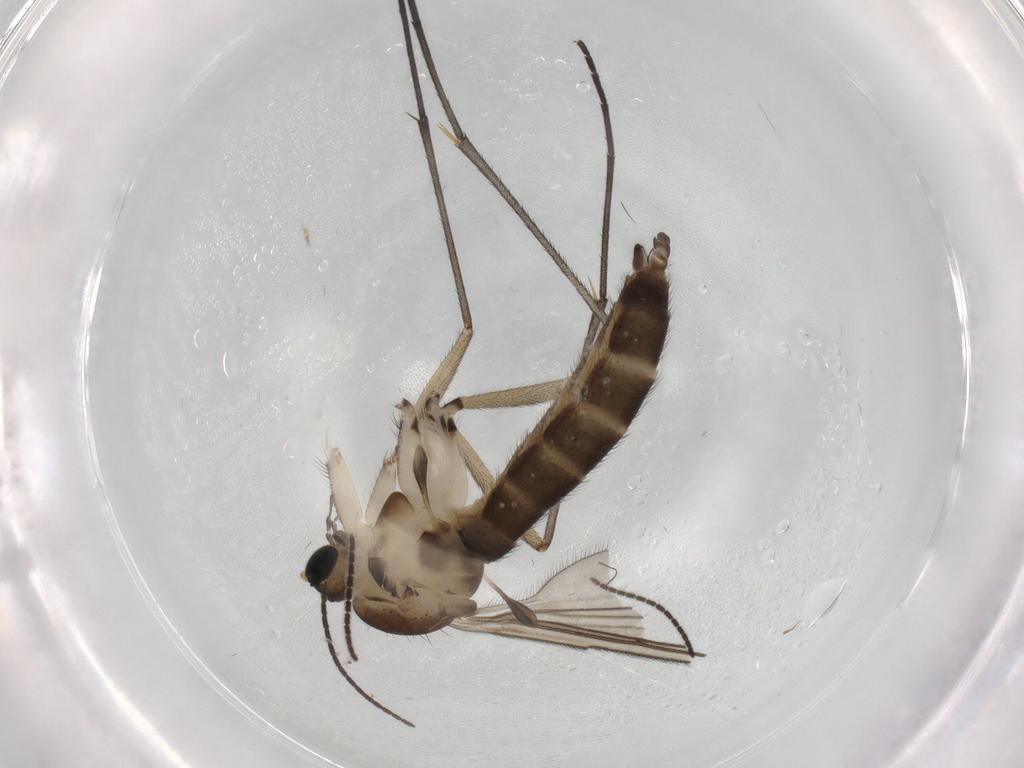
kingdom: Animalia
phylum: Arthropoda
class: Insecta
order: Diptera
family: Sciaridae
